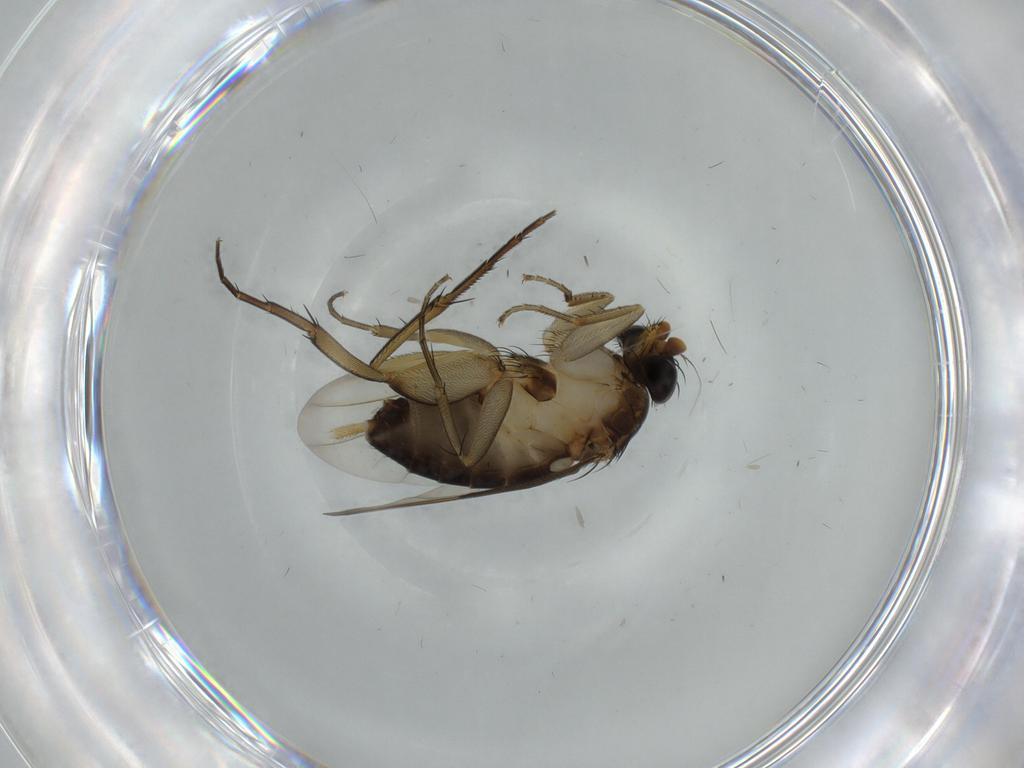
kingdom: Animalia
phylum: Arthropoda
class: Insecta
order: Diptera
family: Phoridae
